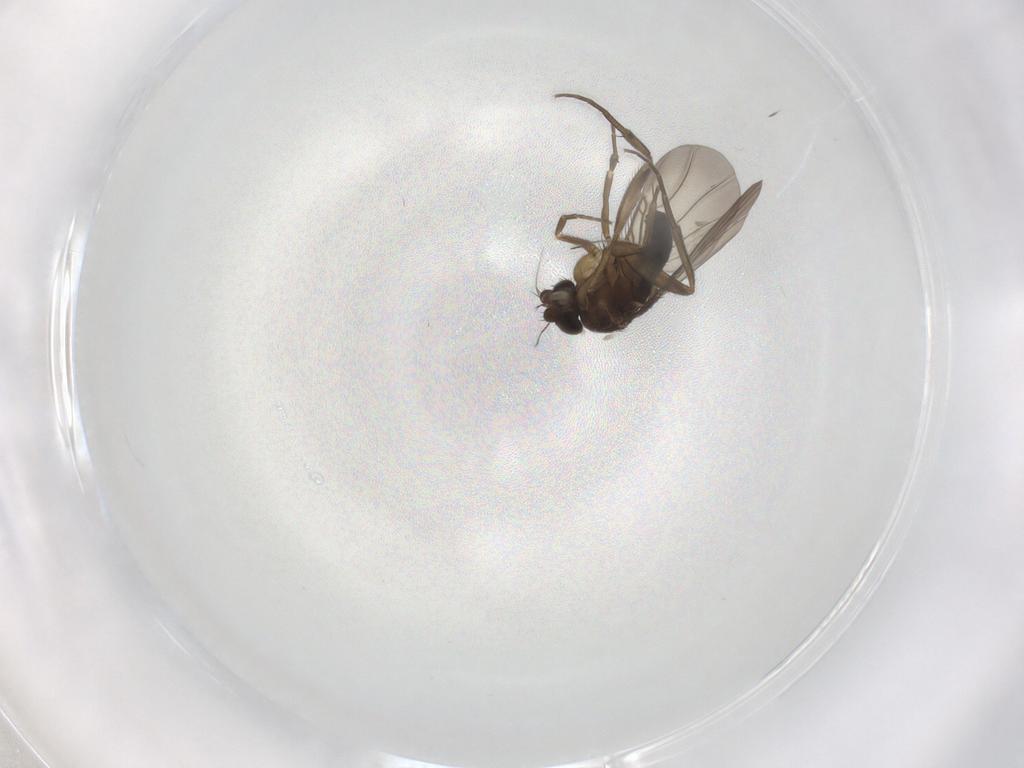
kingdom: Animalia
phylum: Arthropoda
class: Insecta
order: Diptera
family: Phoridae
